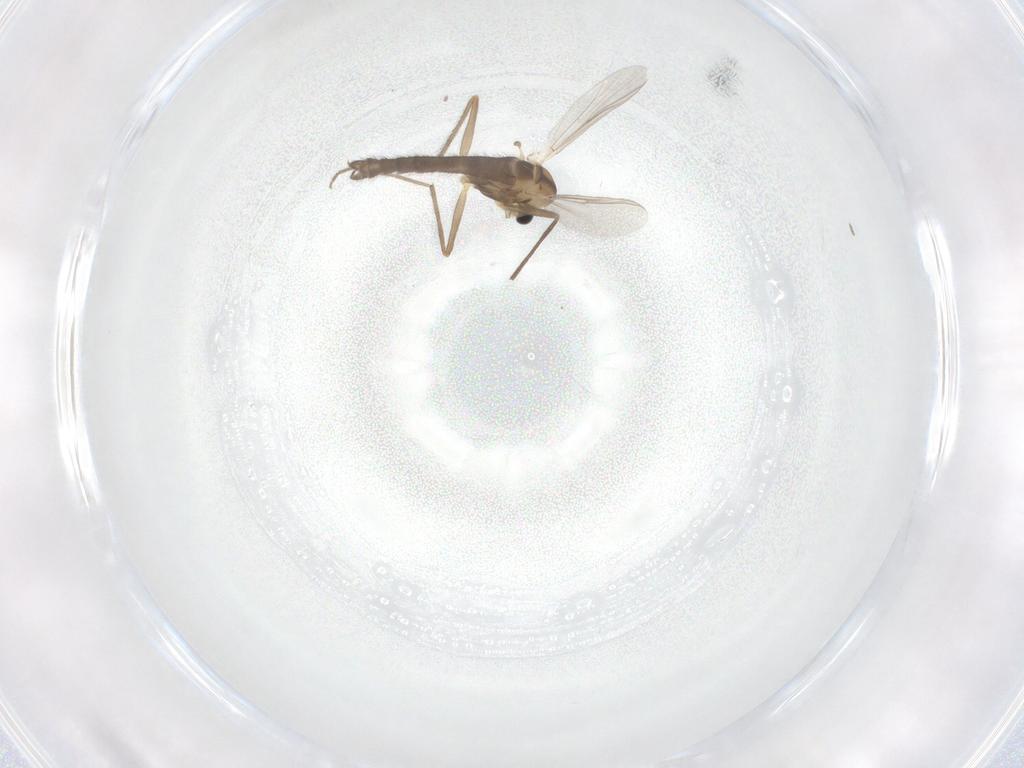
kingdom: Animalia
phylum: Arthropoda
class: Insecta
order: Diptera
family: Chironomidae
